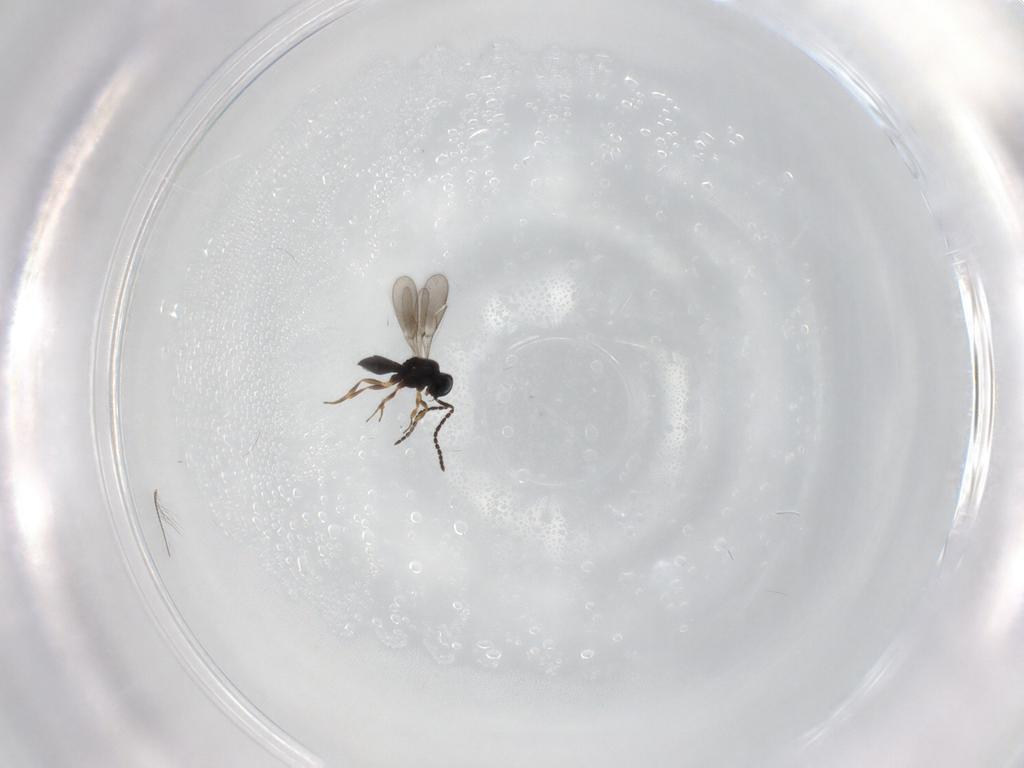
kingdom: Animalia
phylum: Arthropoda
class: Insecta
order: Hymenoptera
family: Scelionidae
